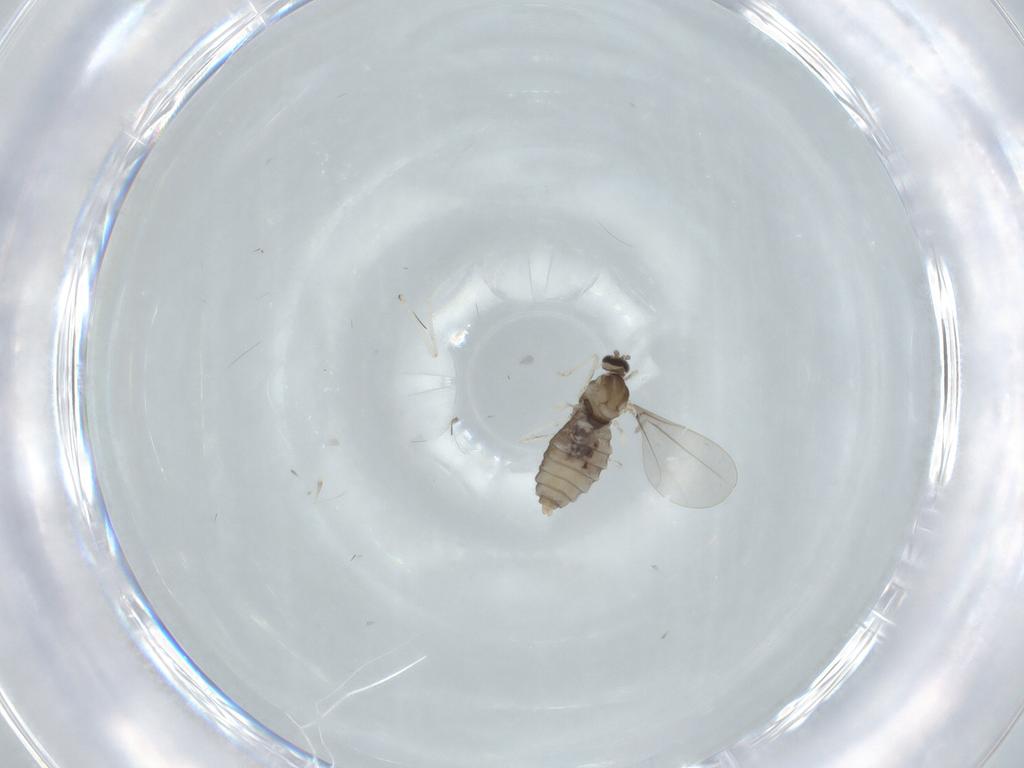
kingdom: Animalia
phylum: Arthropoda
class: Insecta
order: Diptera
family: Cecidomyiidae
